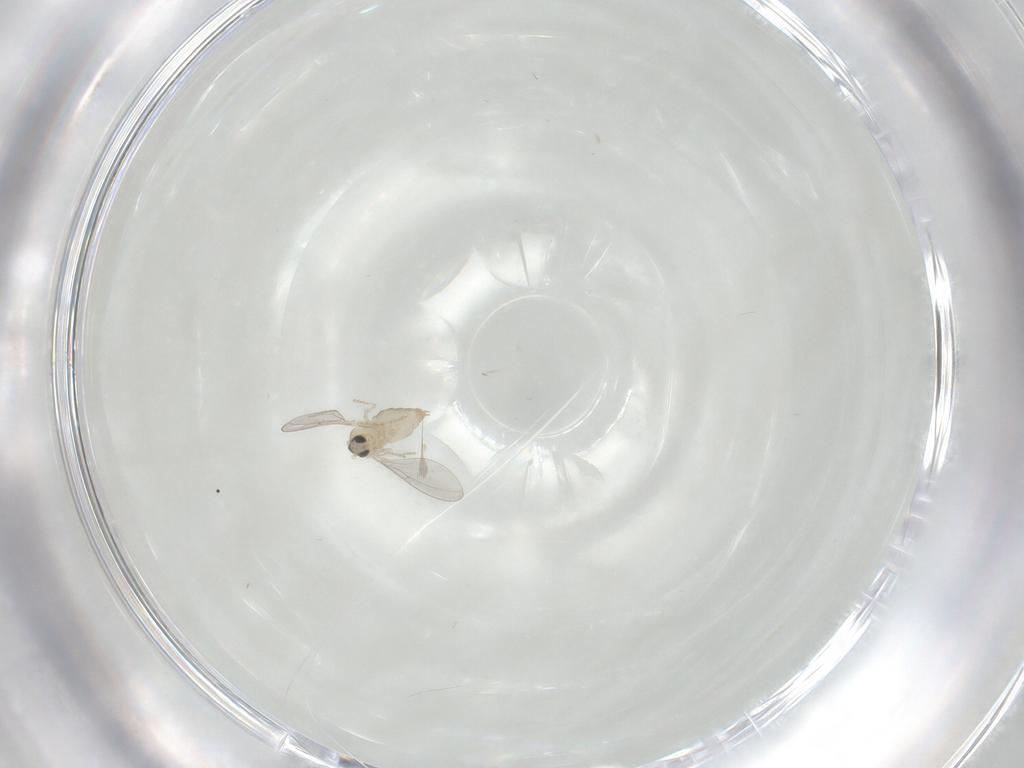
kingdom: Animalia
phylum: Arthropoda
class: Insecta
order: Diptera
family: Cecidomyiidae
